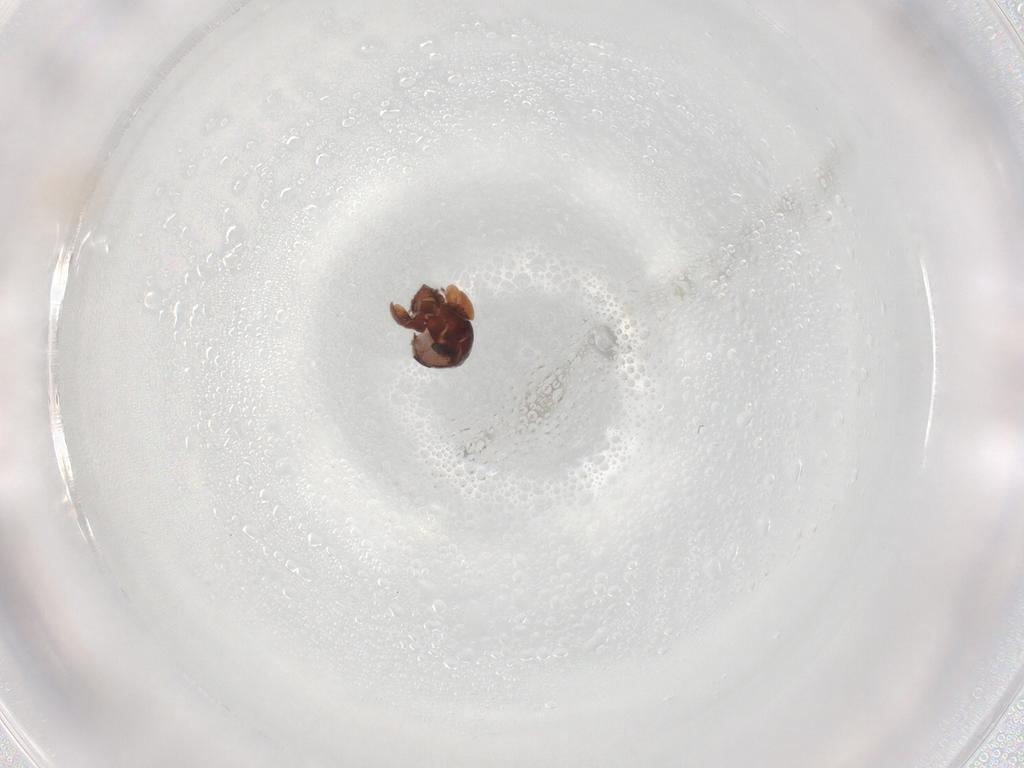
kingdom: Animalia
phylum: Arthropoda
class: Arachnida
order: Sarcoptiformes
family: Galumnidae
